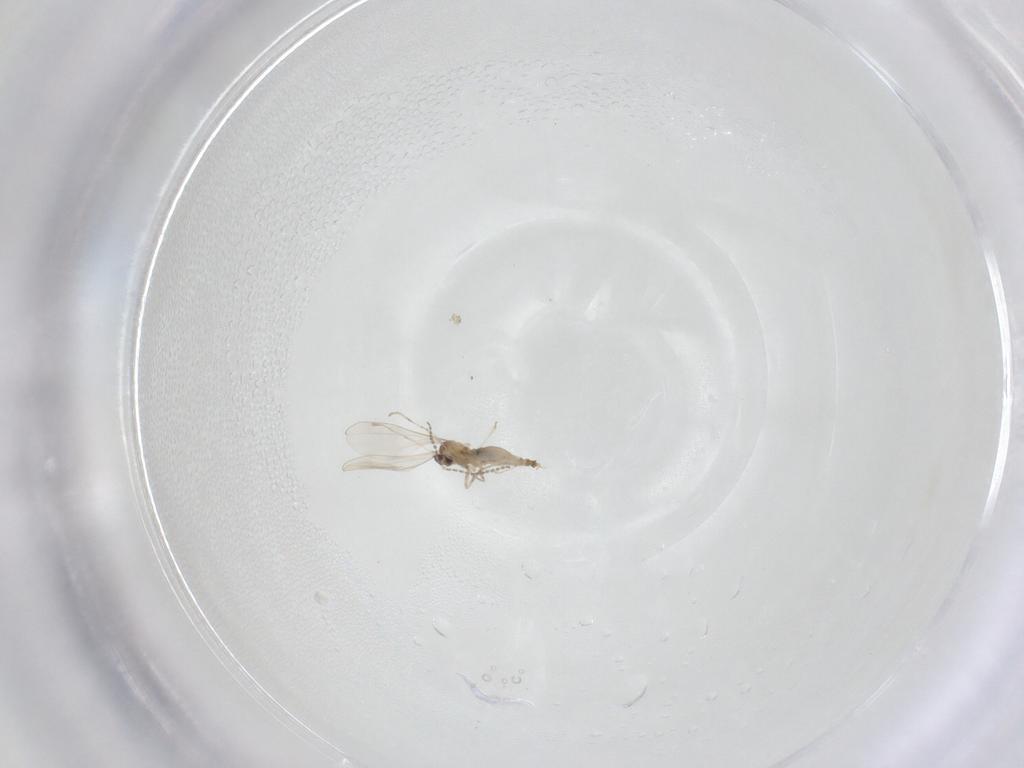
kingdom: Animalia
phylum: Arthropoda
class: Insecta
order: Diptera
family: Cecidomyiidae
